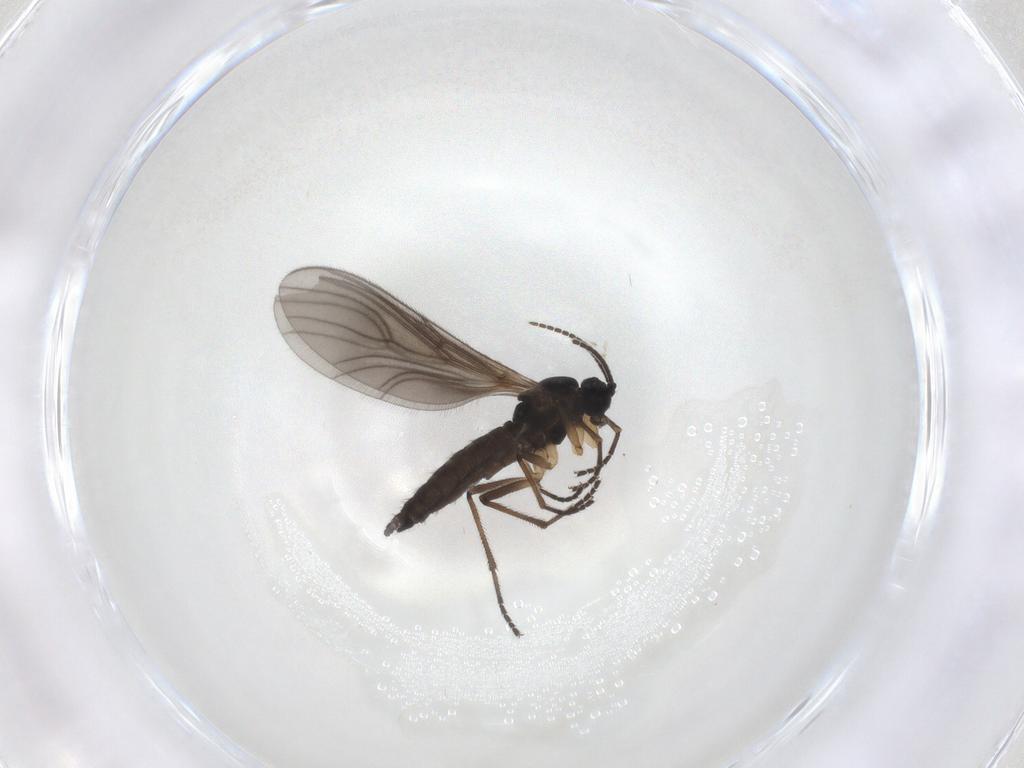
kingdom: Animalia
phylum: Arthropoda
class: Insecta
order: Diptera
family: Sciaridae
